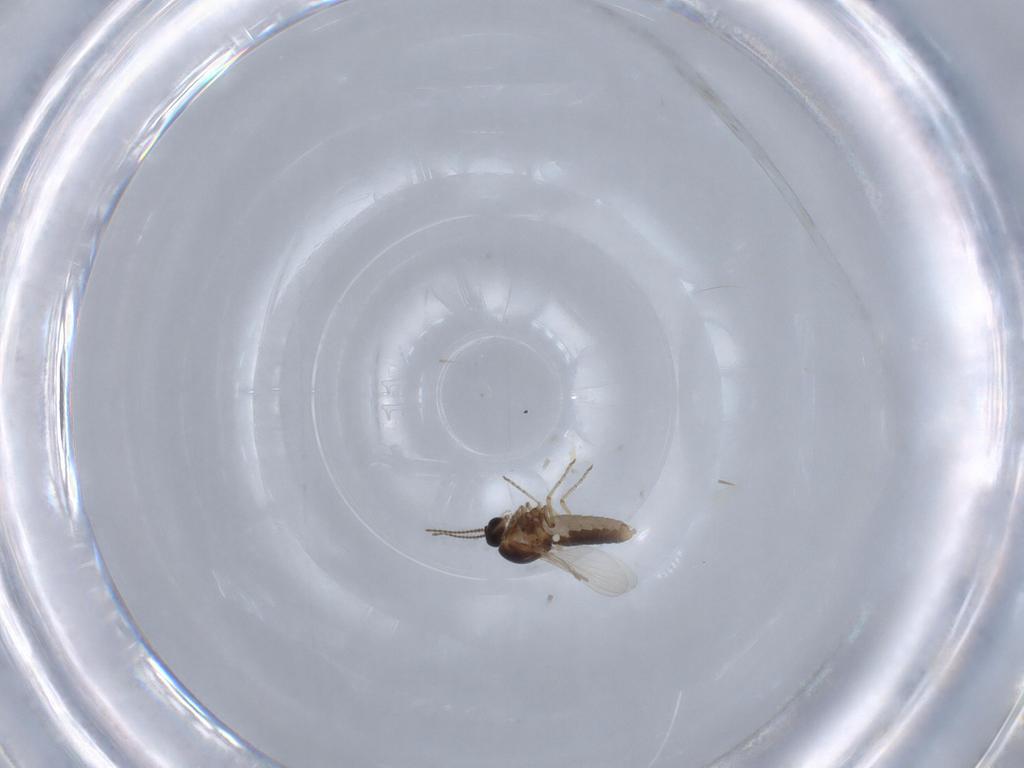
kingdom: Animalia
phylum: Arthropoda
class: Insecta
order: Diptera
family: Ceratopogonidae
